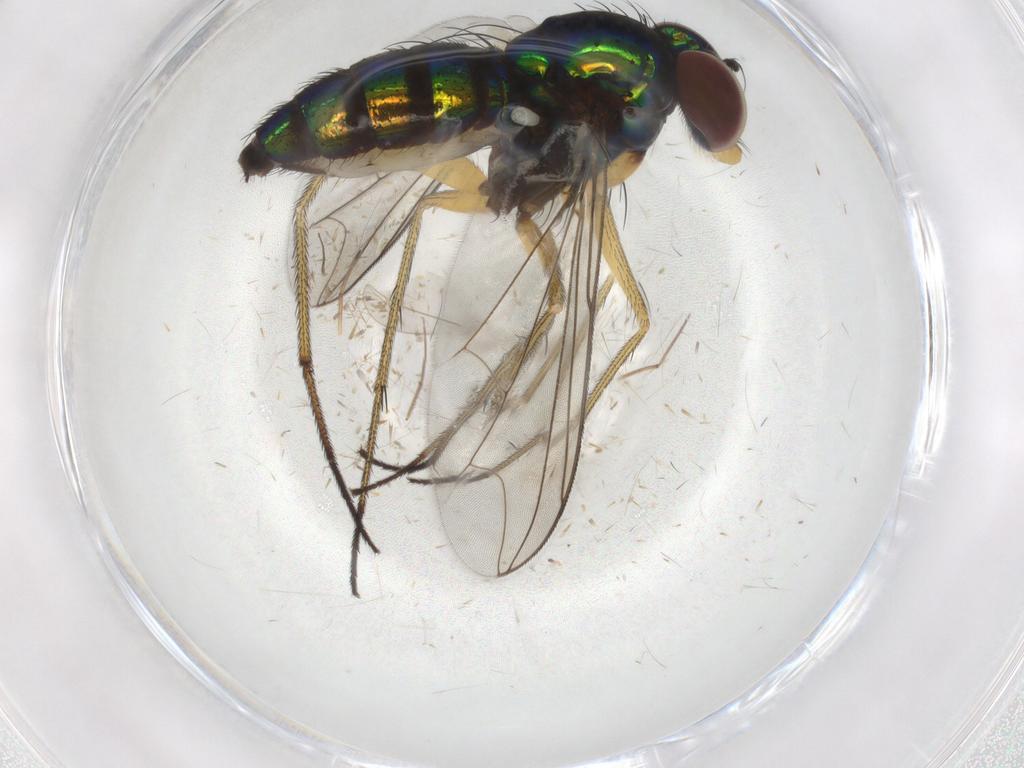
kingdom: Animalia
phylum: Arthropoda
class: Insecta
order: Diptera
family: Dolichopodidae
